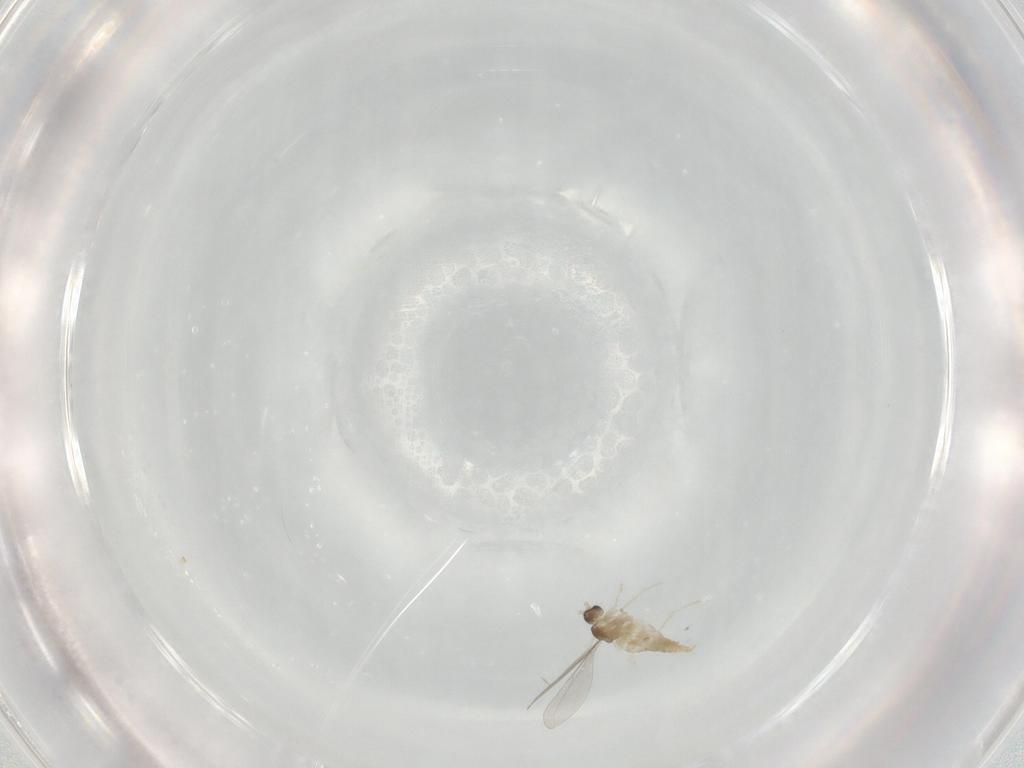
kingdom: Animalia
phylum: Arthropoda
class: Insecta
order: Diptera
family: Cecidomyiidae
